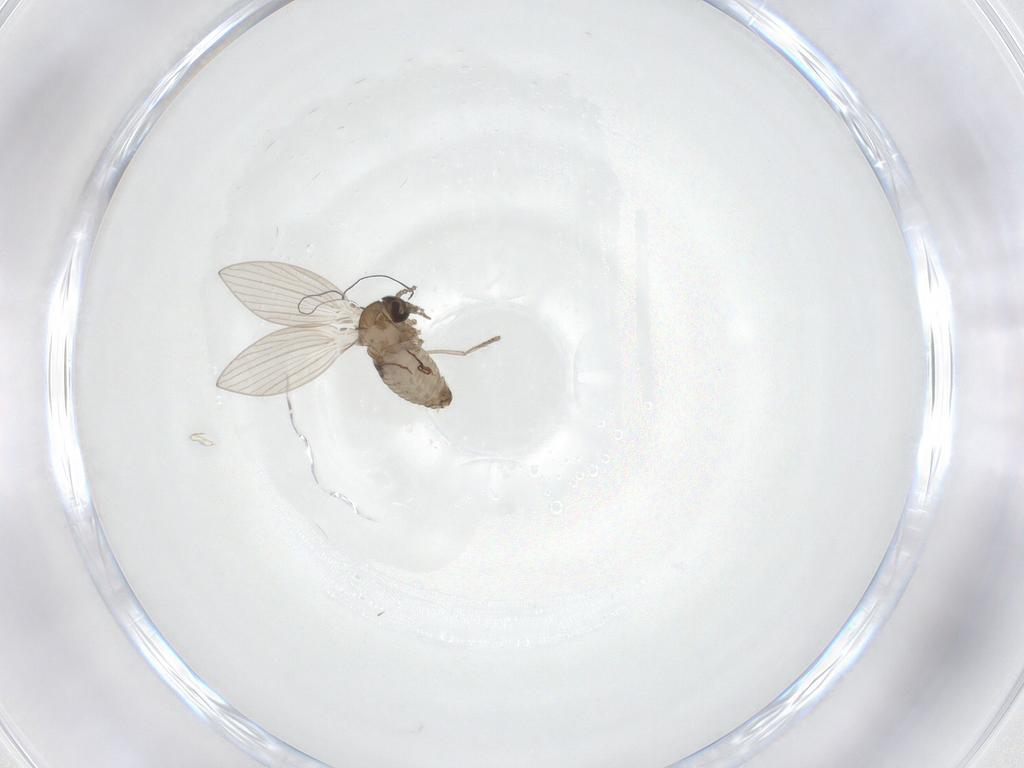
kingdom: Animalia
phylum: Arthropoda
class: Insecta
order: Diptera
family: Psychodidae
